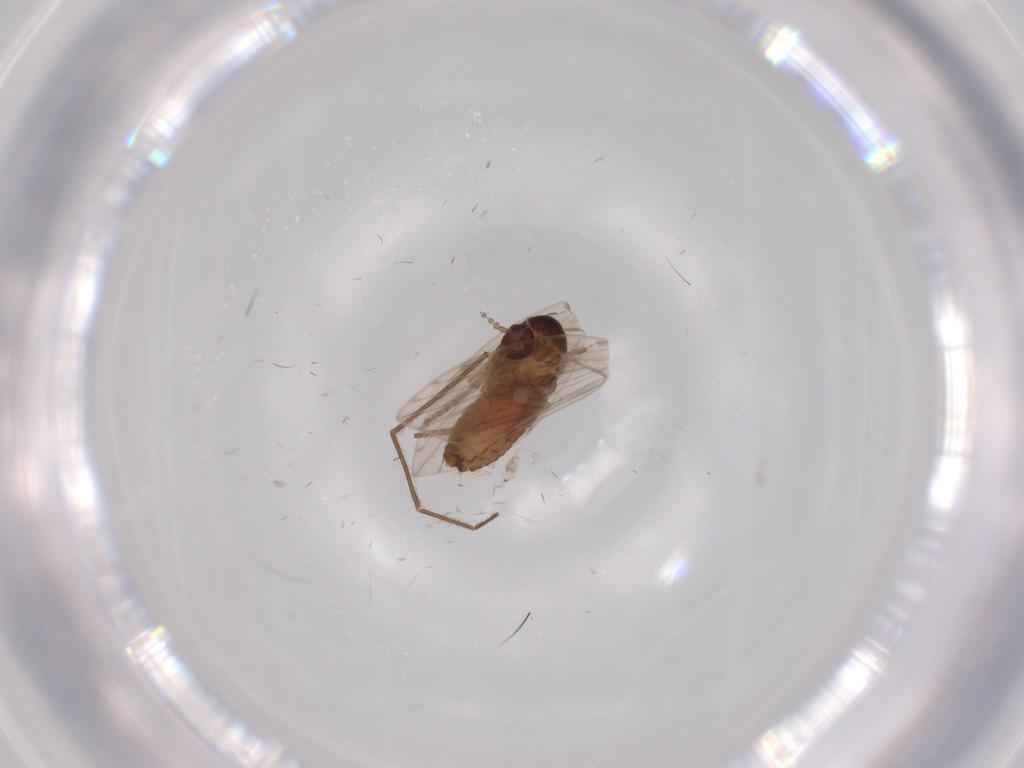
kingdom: Animalia
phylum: Arthropoda
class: Insecta
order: Diptera
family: Psychodidae
